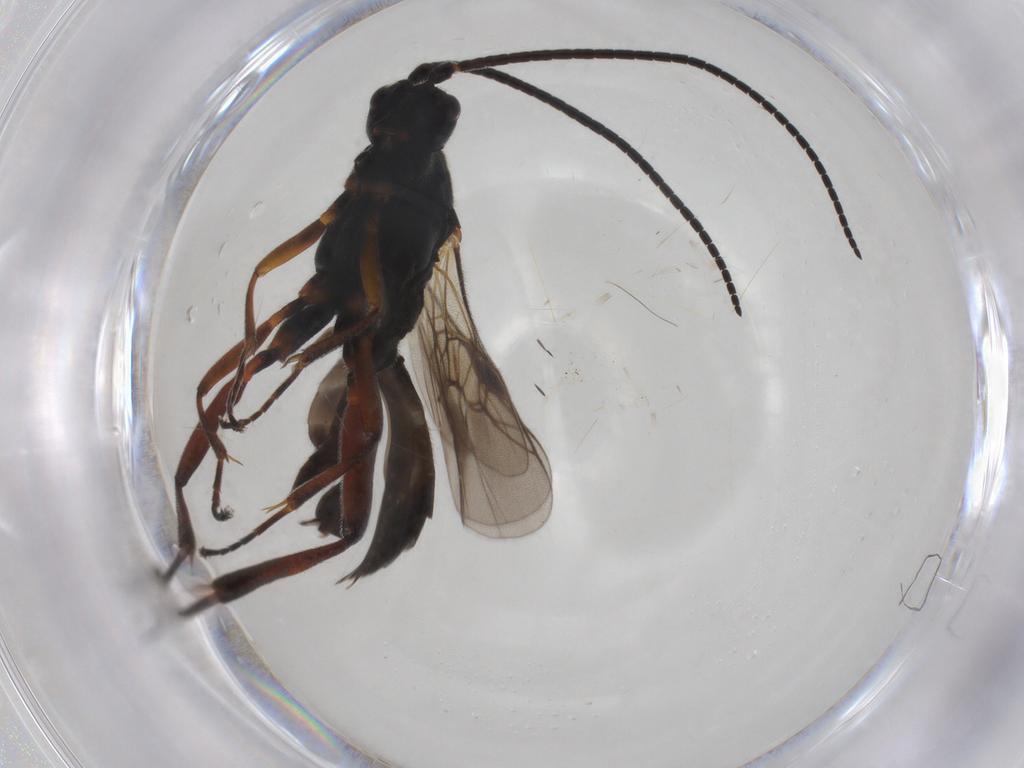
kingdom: Animalia
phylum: Arthropoda
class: Insecta
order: Hymenoptera
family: Braconidae
